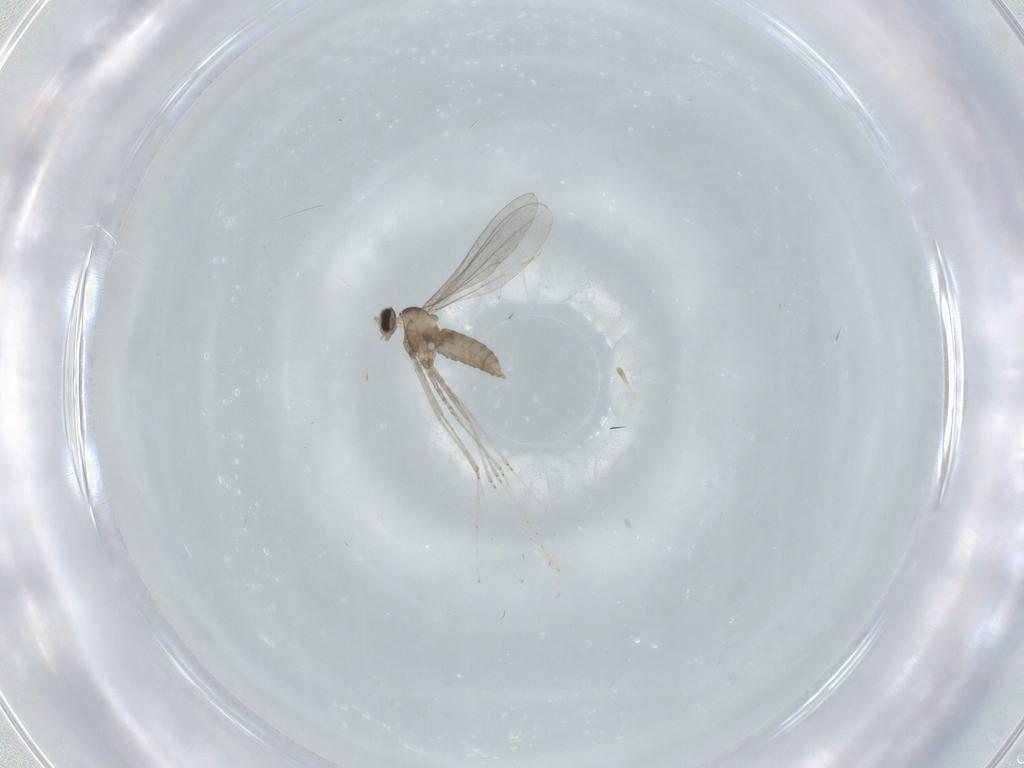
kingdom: Animalia
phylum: Arthropoda
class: Insecta
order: Diptera
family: Cecidomyiidae
